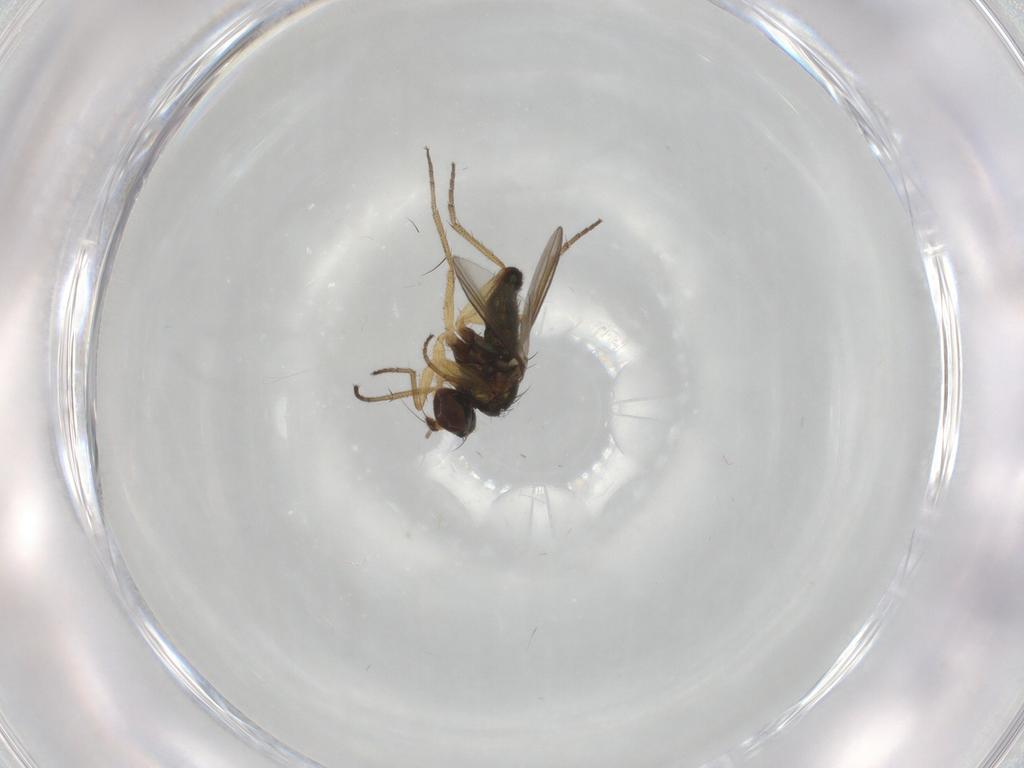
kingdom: Animalia
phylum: Arthropoda
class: Insecta
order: Diptera
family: Dolichopodidae
